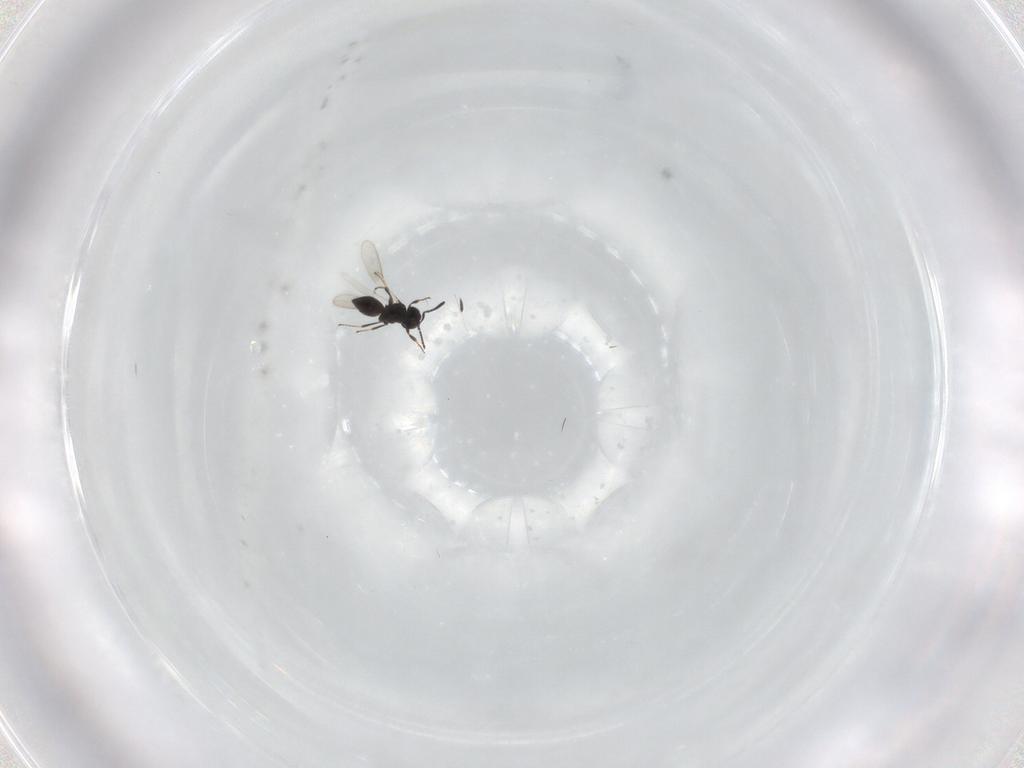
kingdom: Animalia
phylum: Arthropoda
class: Insecta
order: Hymenoptera
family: Scelionidae
